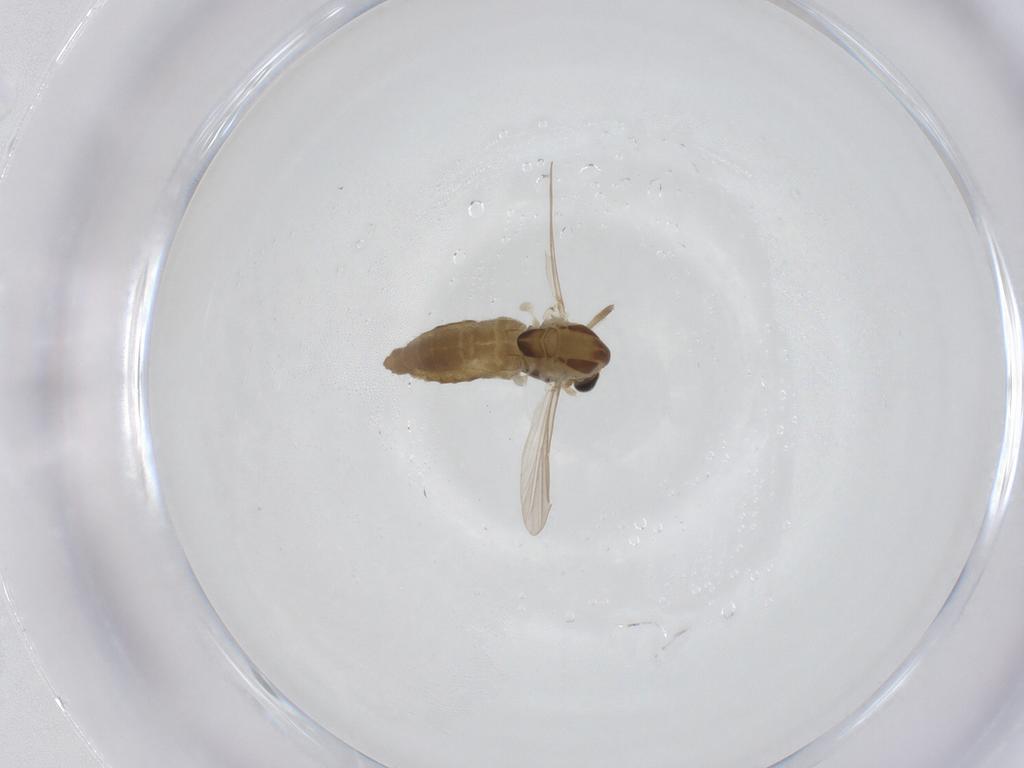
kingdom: Animalia
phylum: Arthropoda
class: Insecta
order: Diptera
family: Chironomidae
